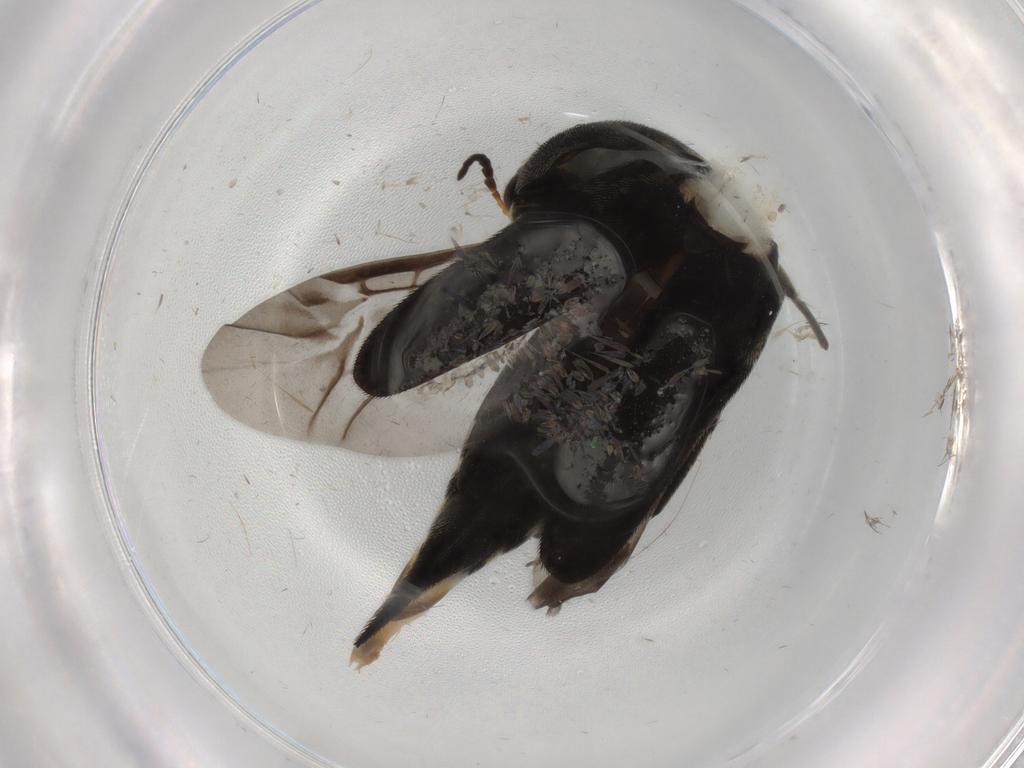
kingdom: Animalia
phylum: Arthropoda
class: Insecta
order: Coleoptera
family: Mordellidae
